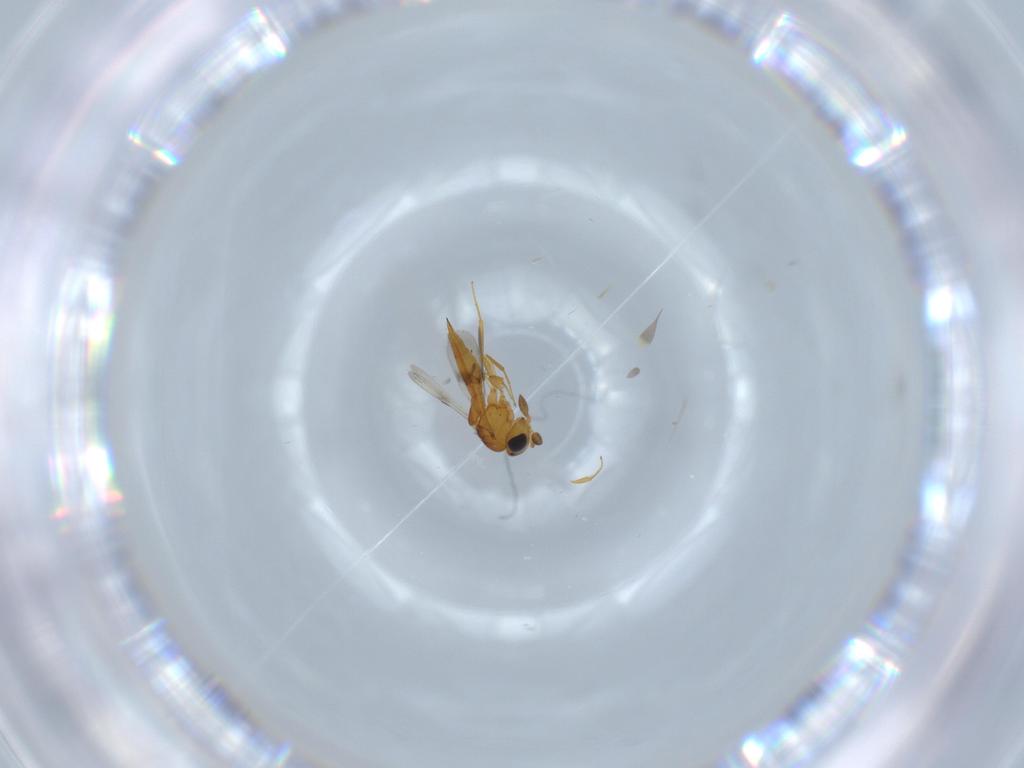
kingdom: Animalia
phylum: Arthropoda
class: Insecta
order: Hymenoptera
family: Scelionidae
